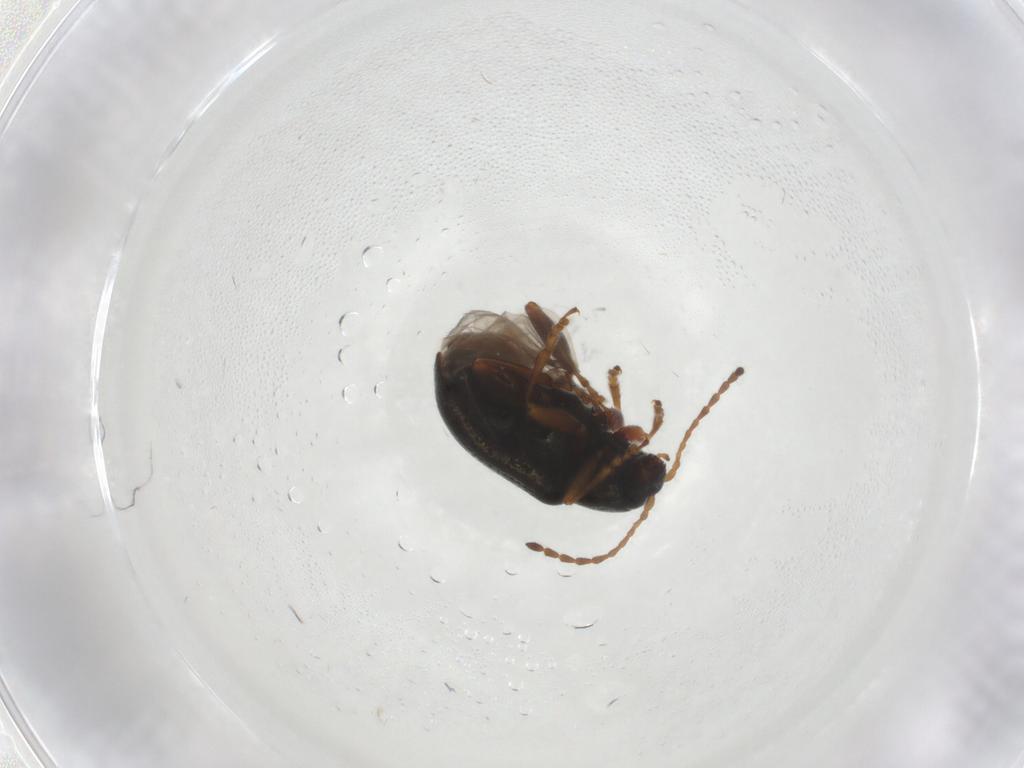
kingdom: Animalia
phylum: Arthropoda
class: Insecta
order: Coleoptera
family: Chrysomelidae
